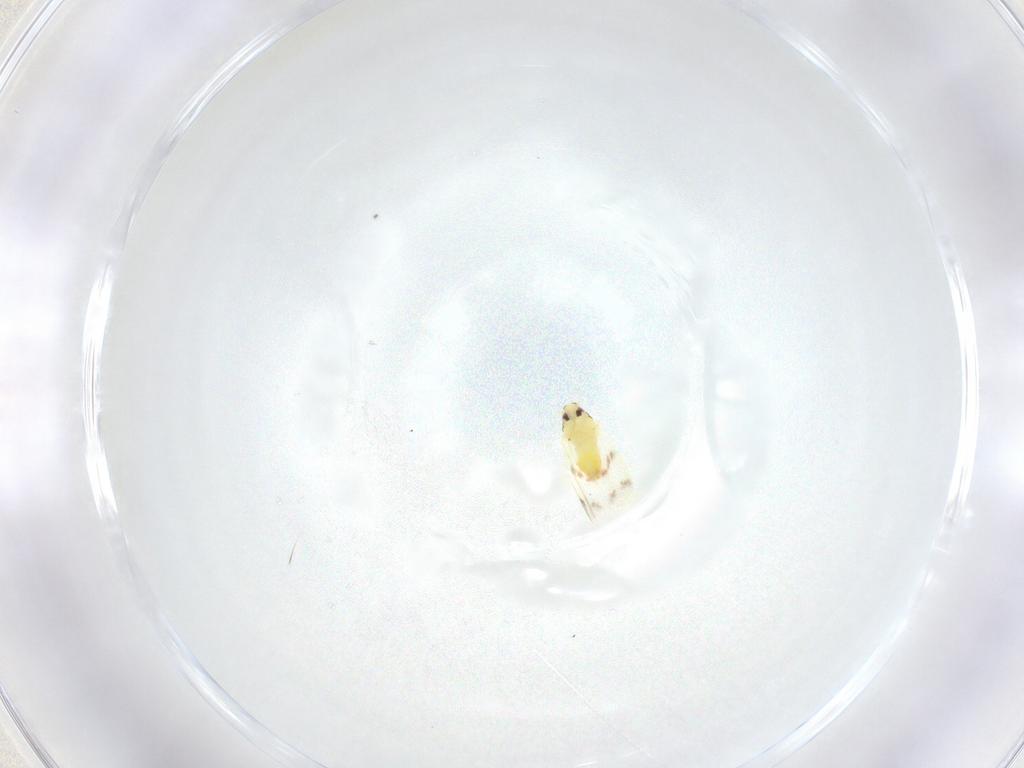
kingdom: Animalia
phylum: Arthropoda
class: Insecta
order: Hemiptera
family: Aleyrodidae
